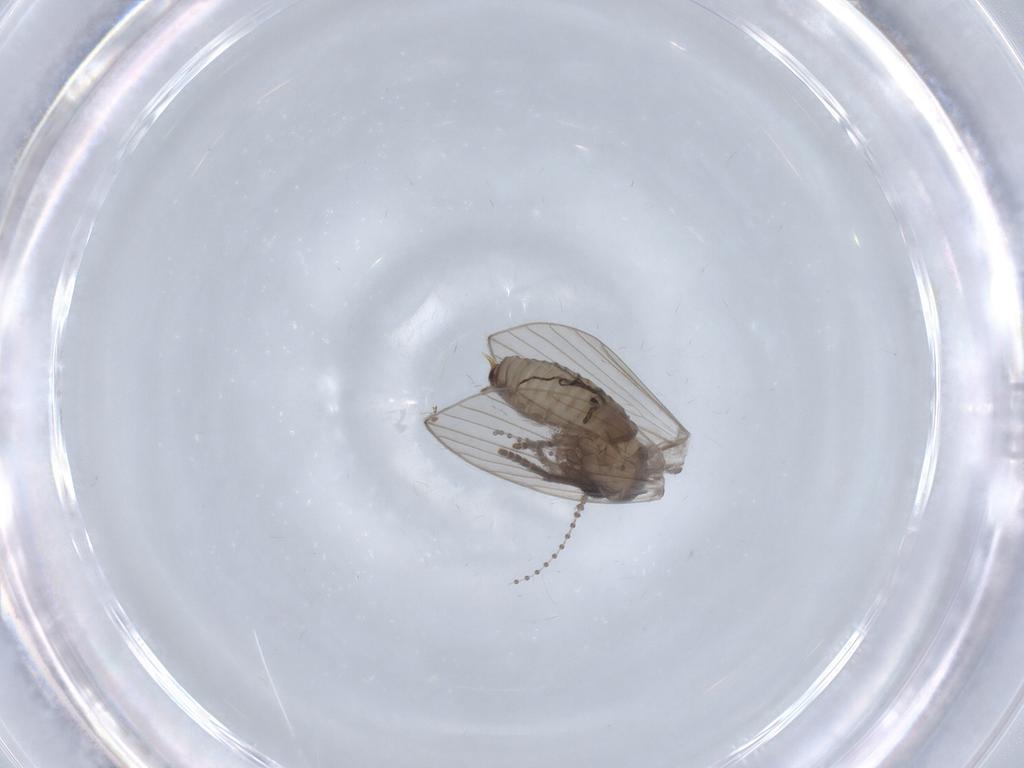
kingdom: Animalia
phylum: Arthropoda
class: Insecta
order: Diptera
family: Psychodidae
